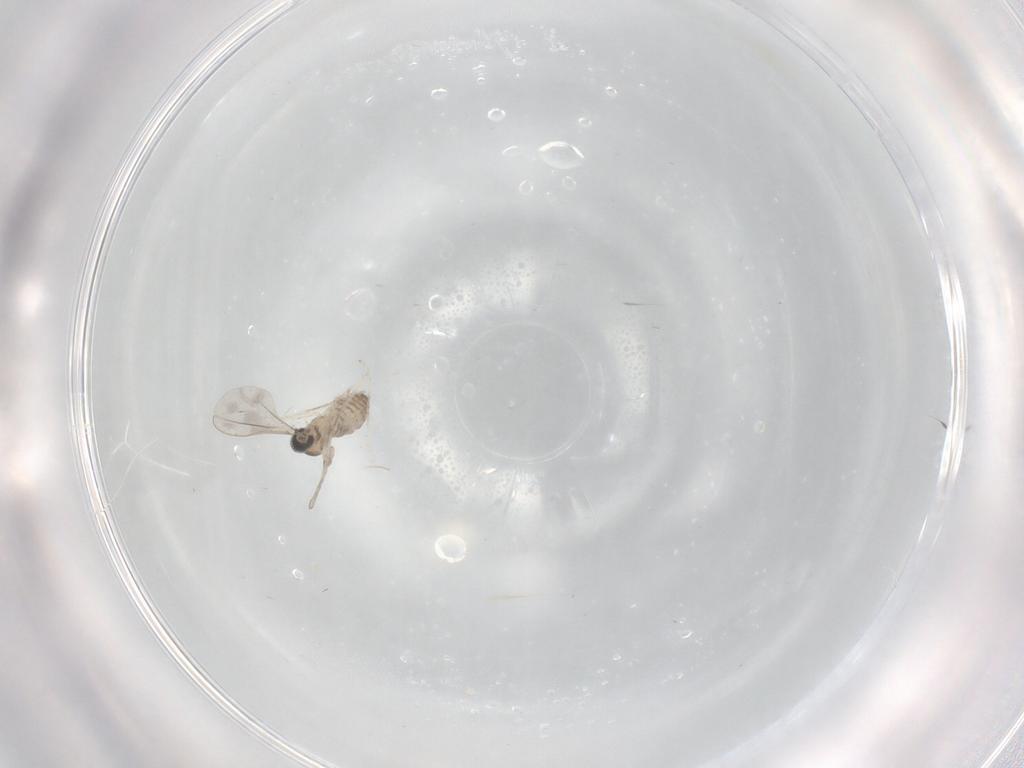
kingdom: Animalia
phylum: Arthropoda
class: Insecta
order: Diptera
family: Cecidomyiidae
